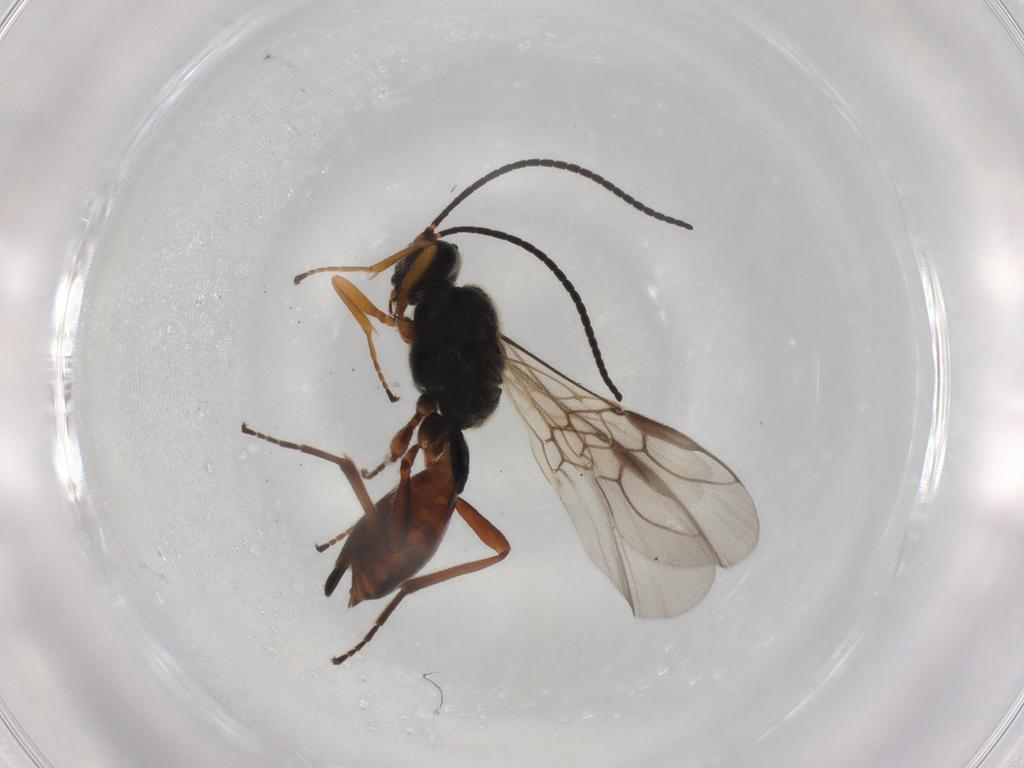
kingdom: Animalia
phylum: Arthropoda
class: Insecta
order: Hymenoptera
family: Braconidae
